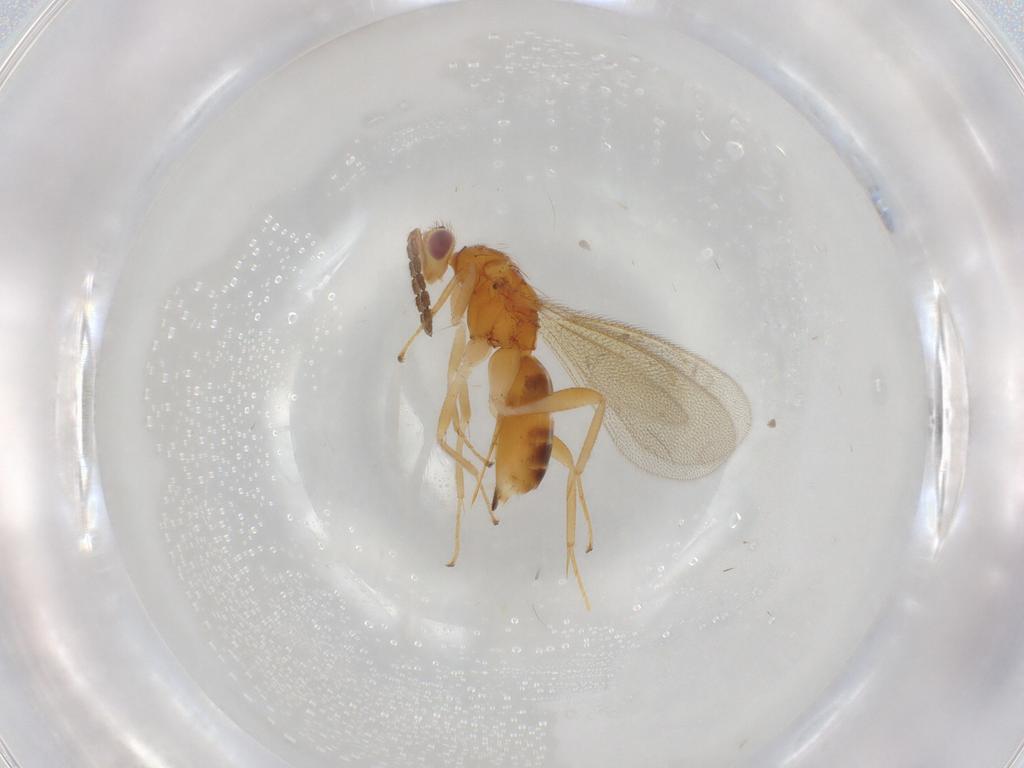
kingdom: Animalia
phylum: Arthropoda
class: Insecta
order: Hymenoptera
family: Eulophidae
